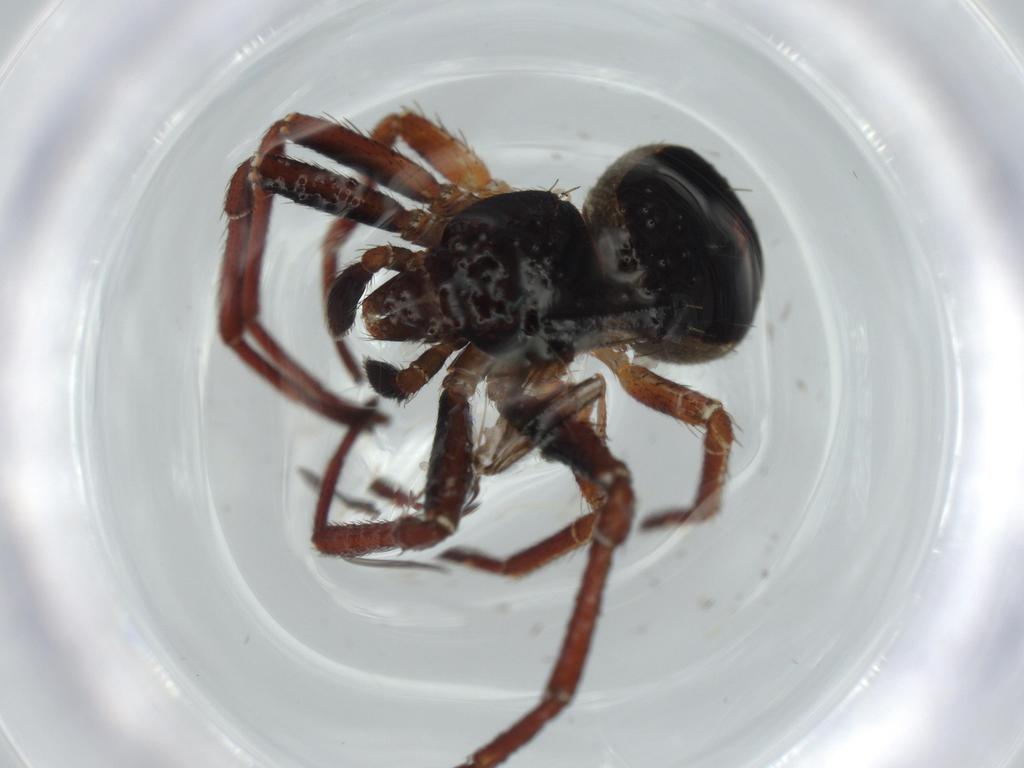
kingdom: Animalia
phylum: Arthropoda
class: Arachnida
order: Araneae
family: Thomisidae
